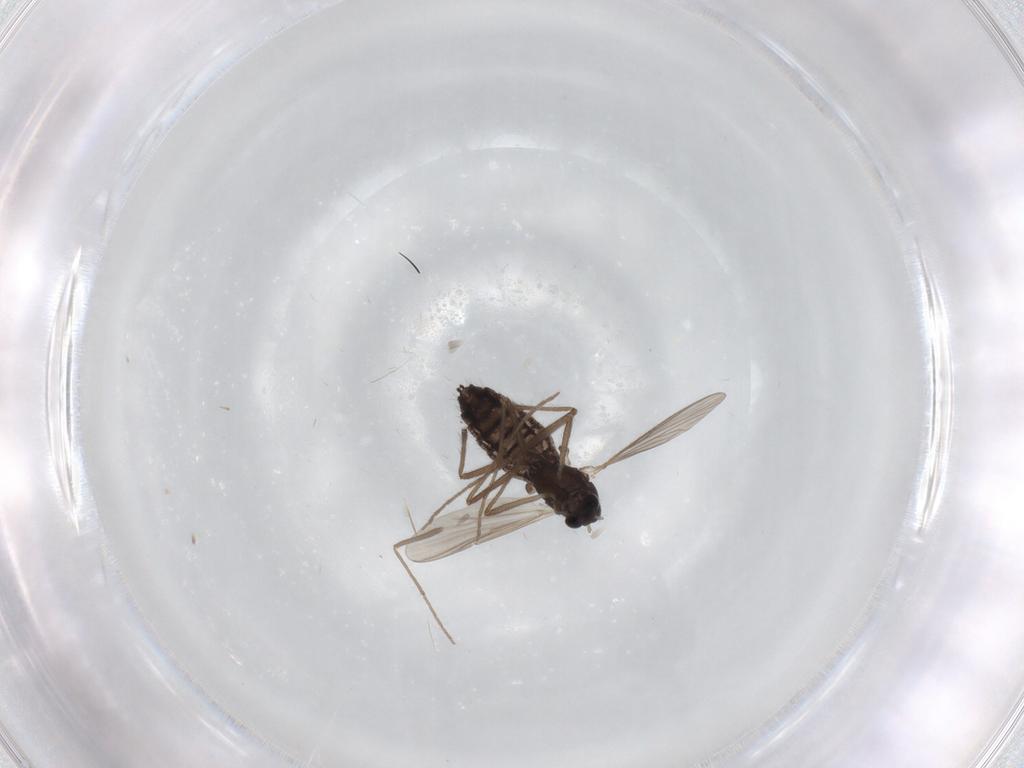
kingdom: Animalia
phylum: Arthropoda
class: Insecta
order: Diptera
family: Chironomidae
